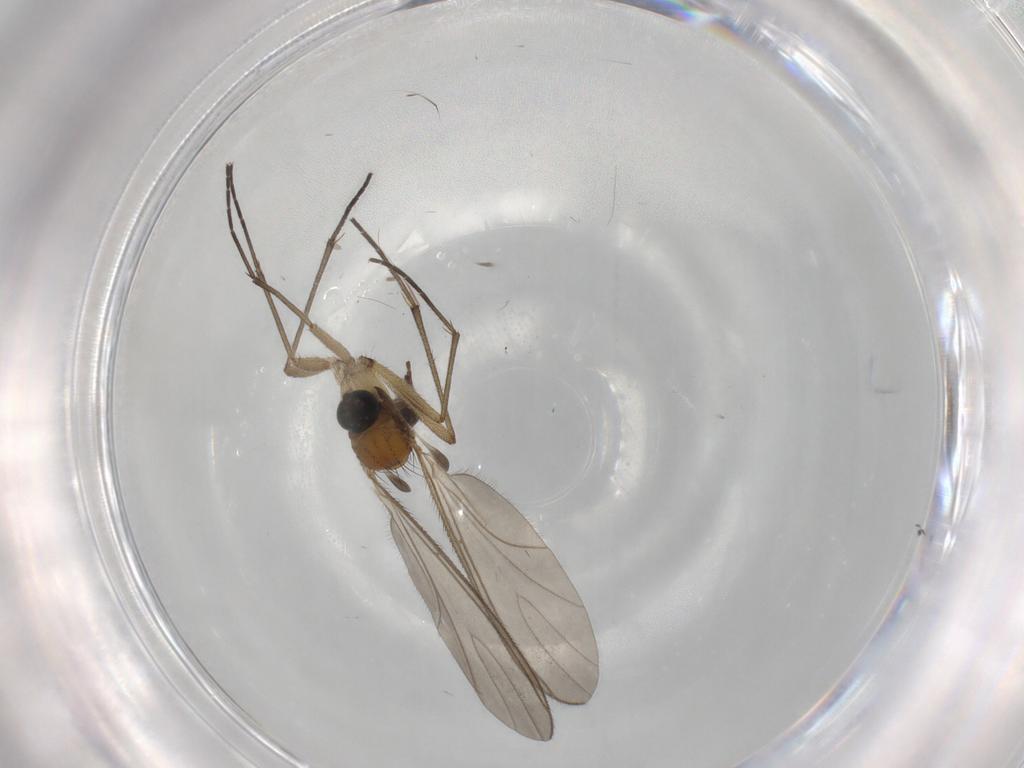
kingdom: Animalia
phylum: Arthropoda
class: Insecta
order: Diptera
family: Sciaridae
